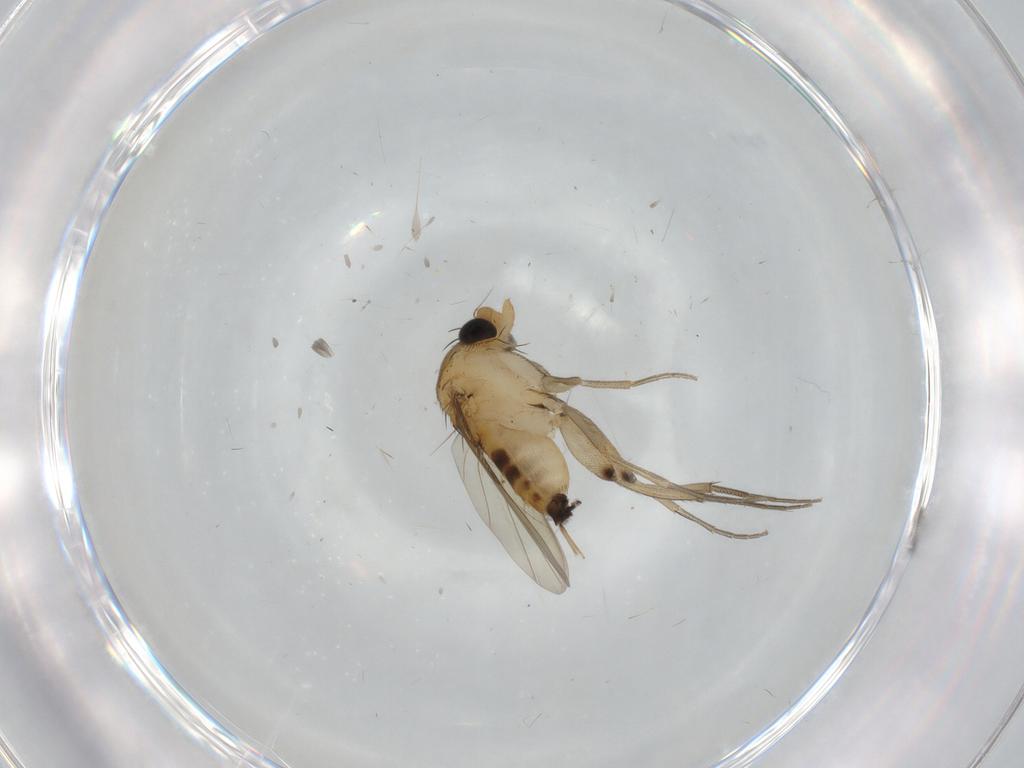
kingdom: Animalia
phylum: Arthropoda
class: Insecta
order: Diptera
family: Phoridae
